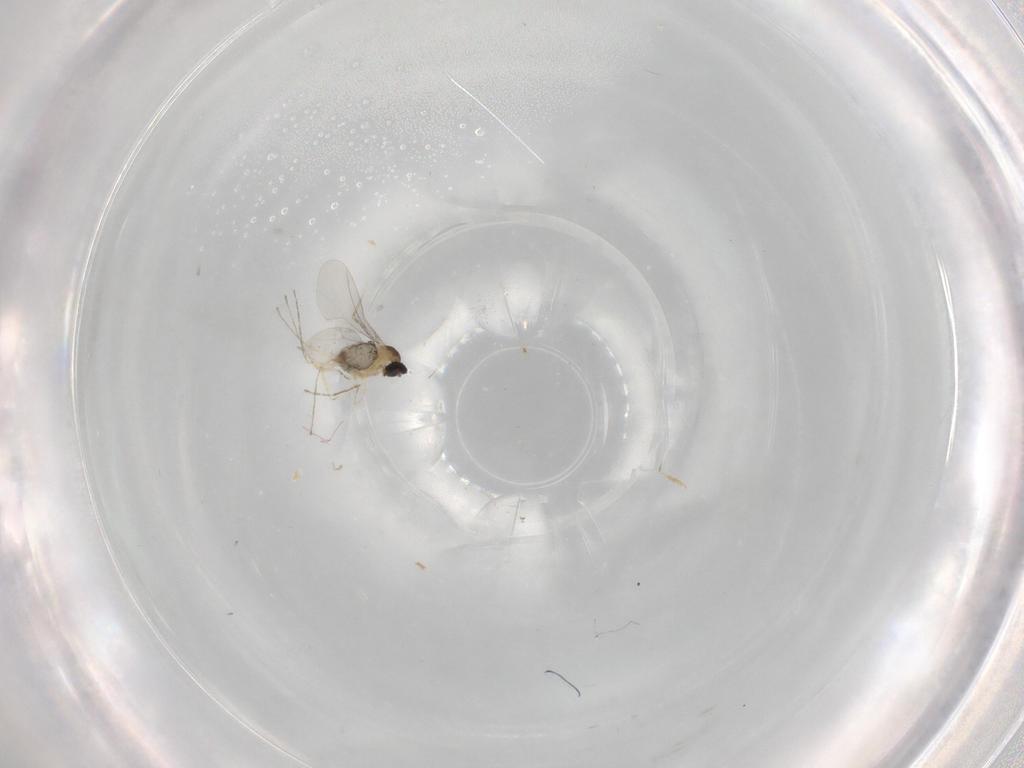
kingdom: Animalia
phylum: Arthropoda
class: Insecta
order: Diptera
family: Cecidomyiidae
